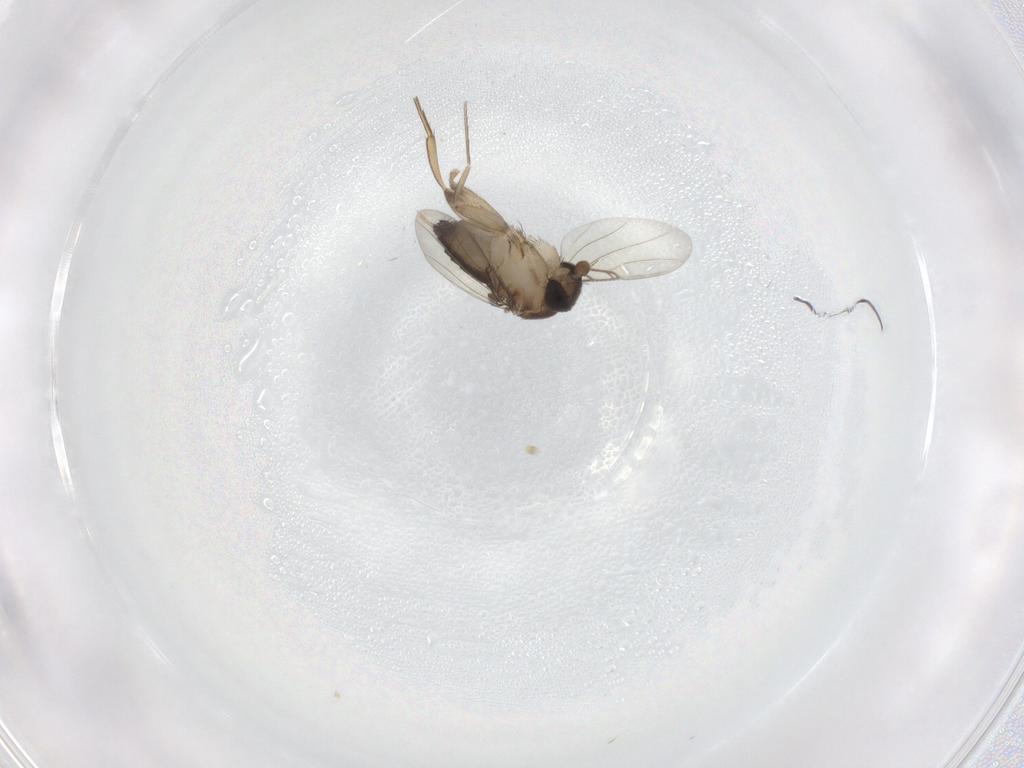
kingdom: Animalia
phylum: Arthropoda
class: Insecta
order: Diptera
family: Phoridae
